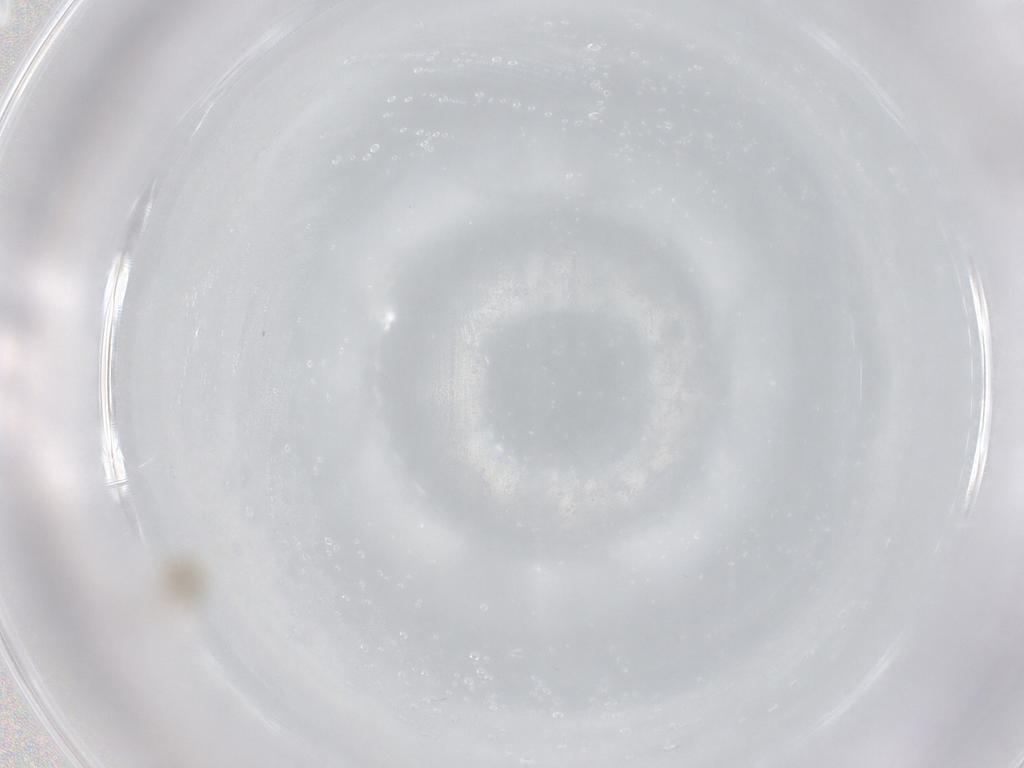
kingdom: Animalia
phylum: Arthropoda
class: Insecta
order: Diptera
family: Cecidomyiidae
